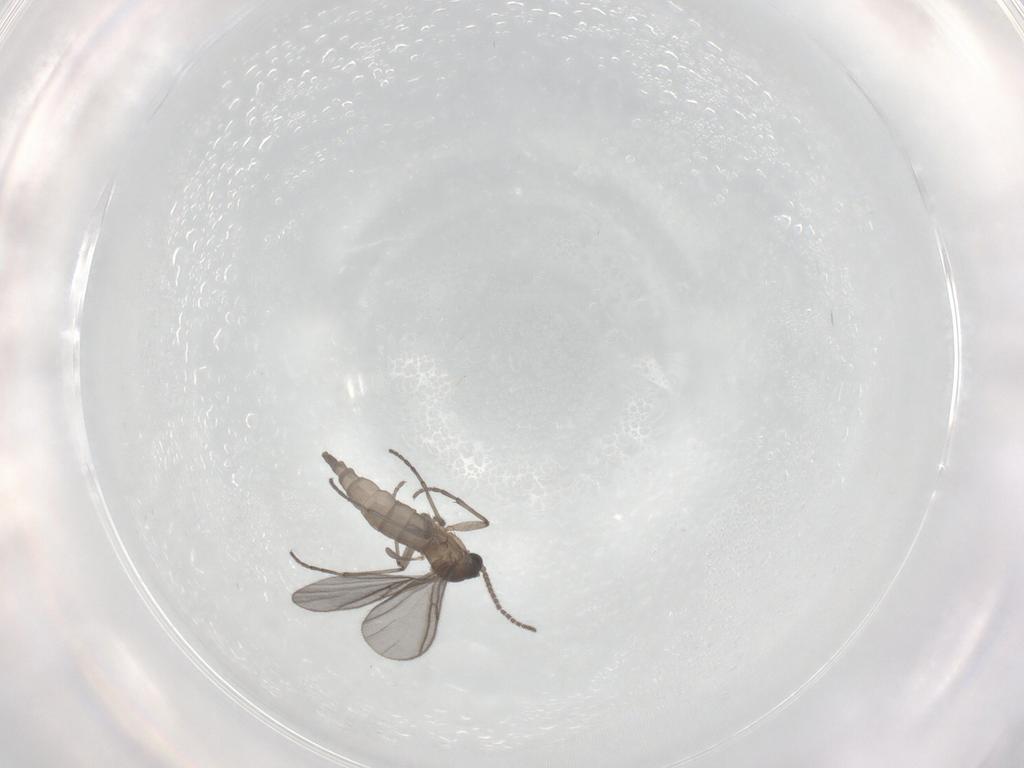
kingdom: Animalia
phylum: Arthropoda
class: Insecta
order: Diptera
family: Sciaridae
